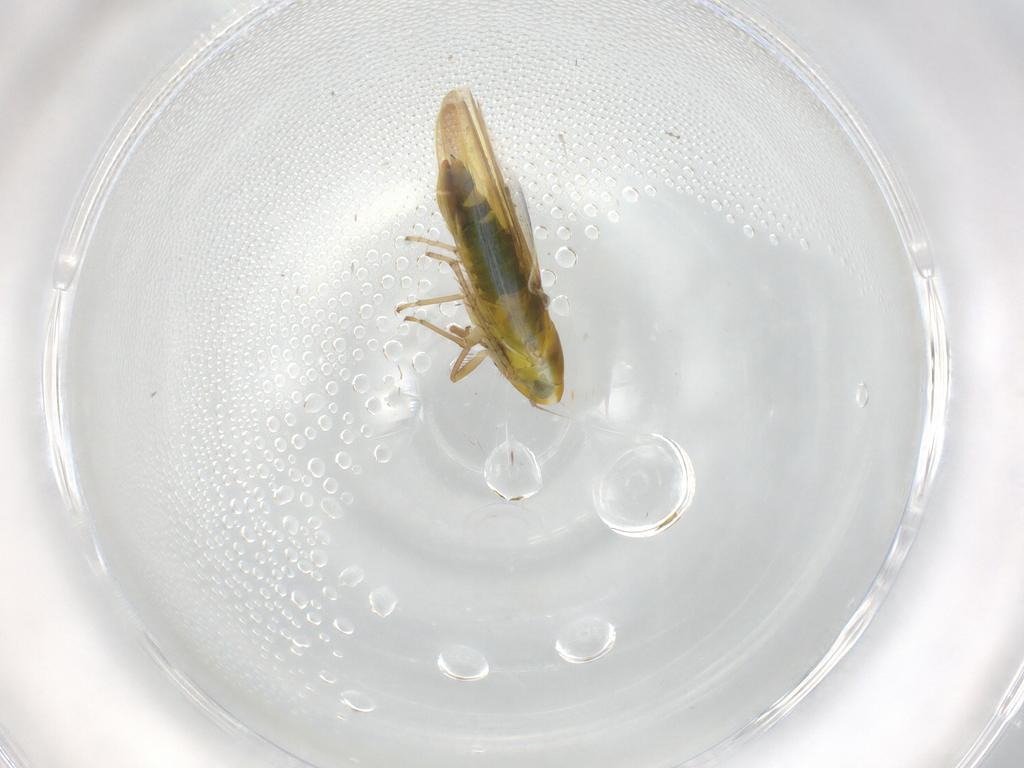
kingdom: Animalia
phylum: Arthropoda
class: Insecta
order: Hemiptera
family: Cicadellidae
